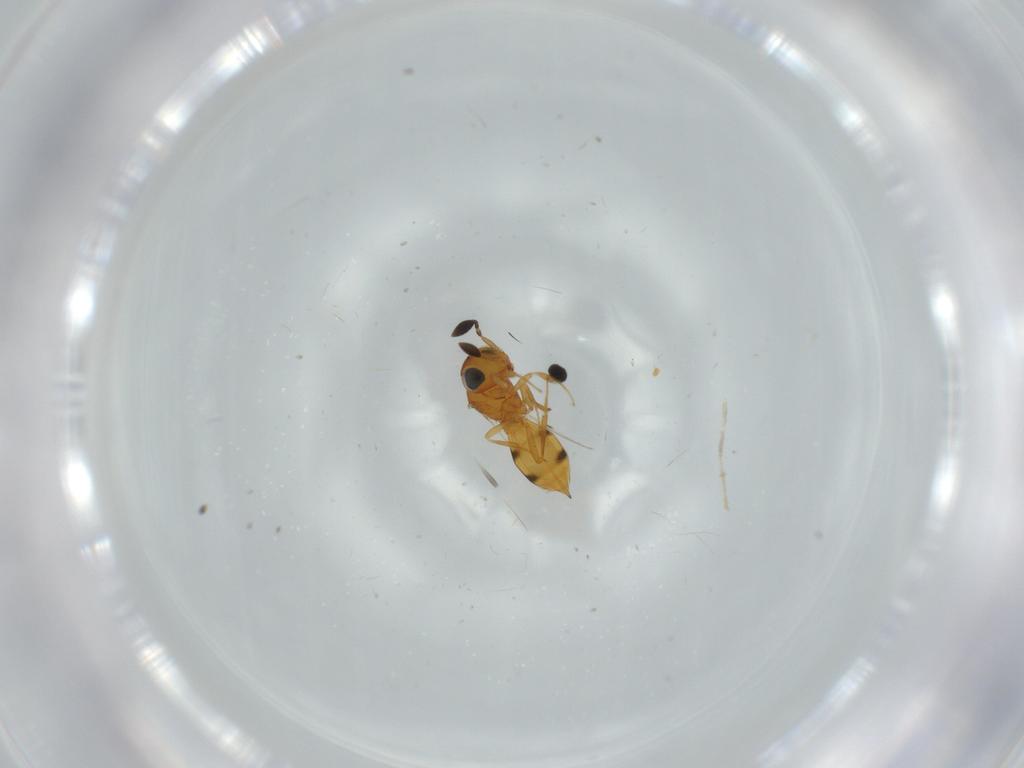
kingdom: Animalia
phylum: Arthropoda
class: Insecta
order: Hymenoptera
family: Scelionidae
